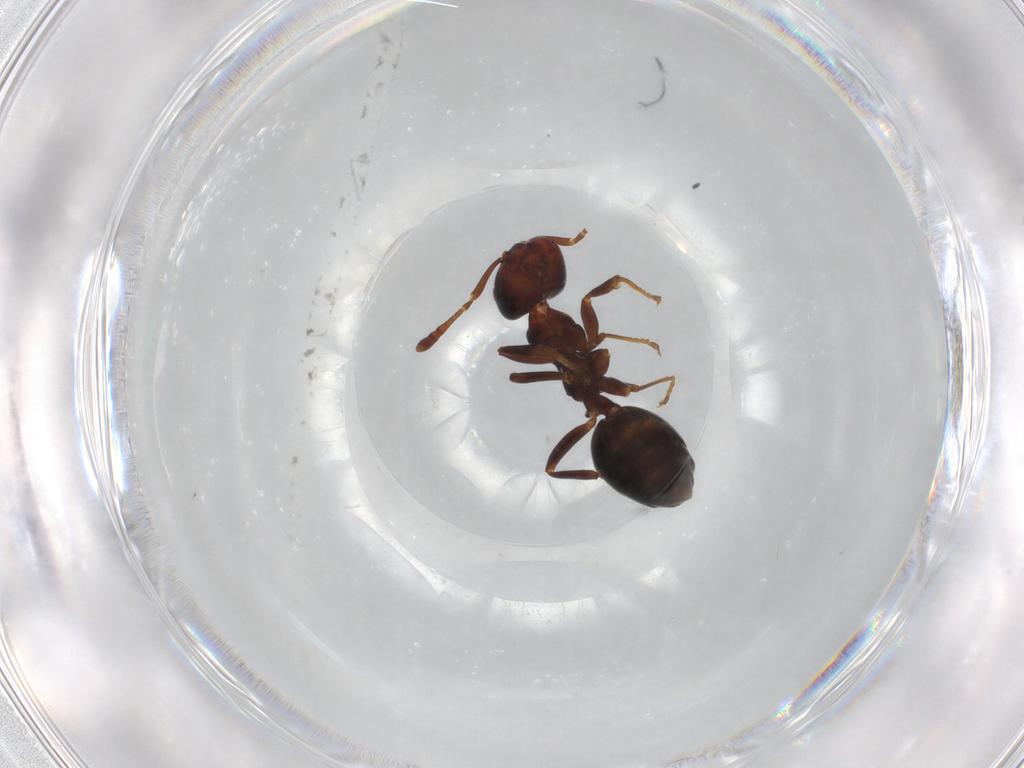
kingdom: Animalia
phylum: Arthropoda
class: Insecta
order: Hymenoptera
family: Formicidae
